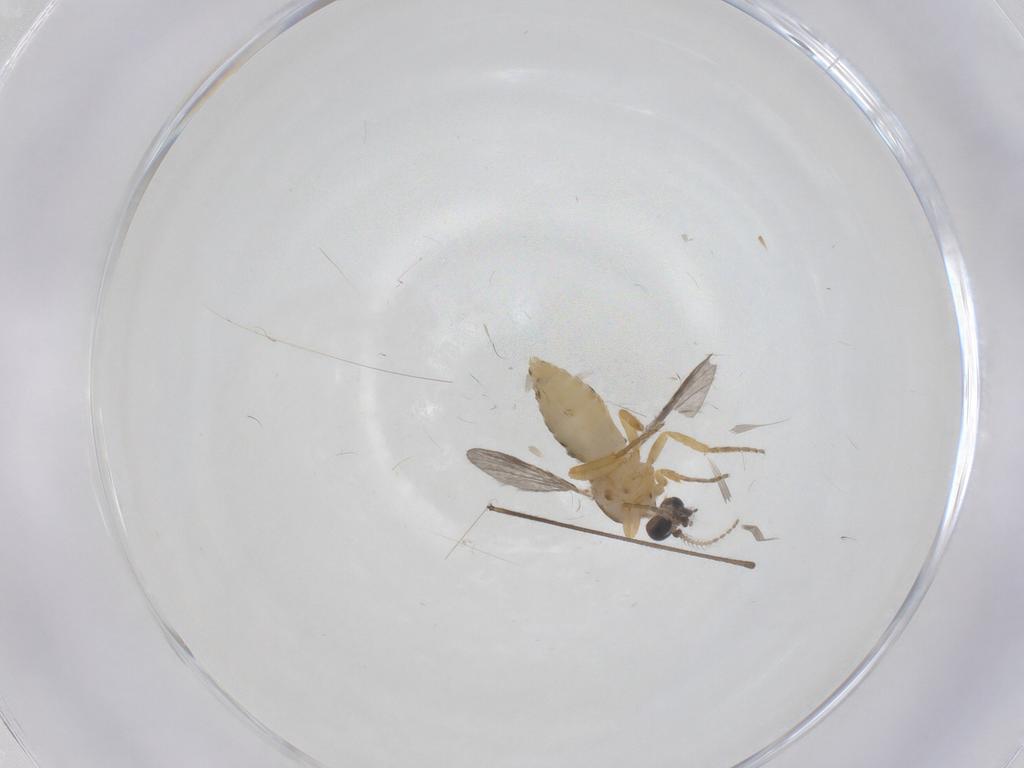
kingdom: Animalia
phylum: Arthropoda
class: Insecta
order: Diptera
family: Ceratopogonidae
